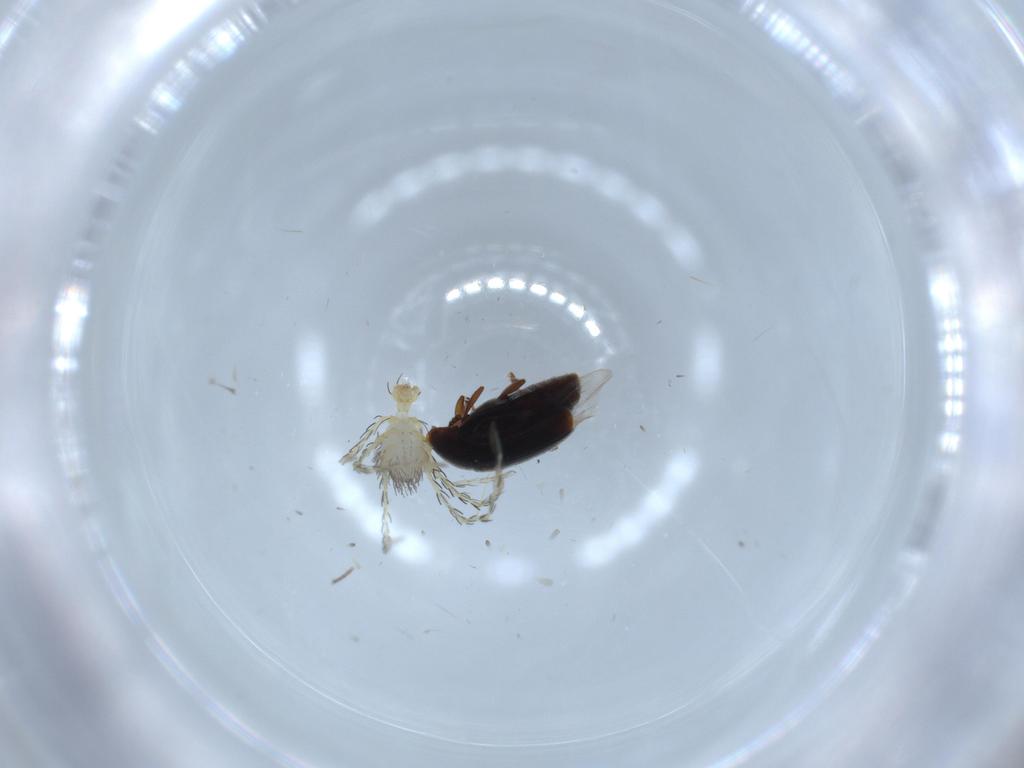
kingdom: Animalia
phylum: Arthropoda
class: Insecta
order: Coleoptera
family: Corylophidae
